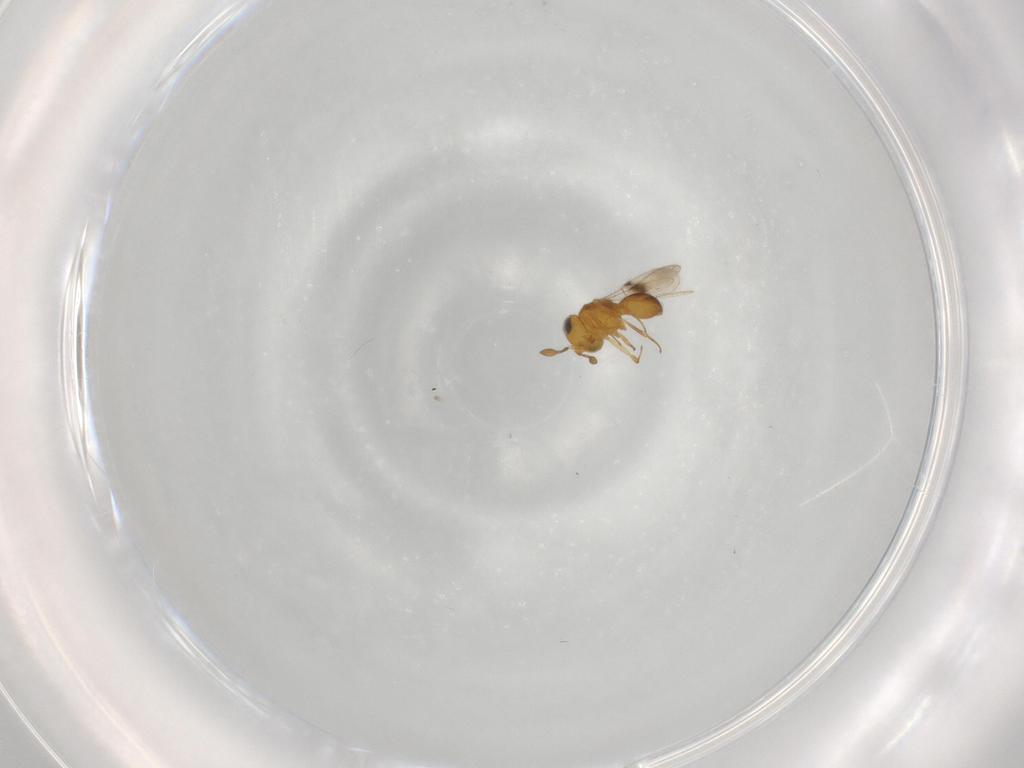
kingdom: Animalia
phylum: Arthropoda
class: Insecta
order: Hymenoptera
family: Scelionidae
